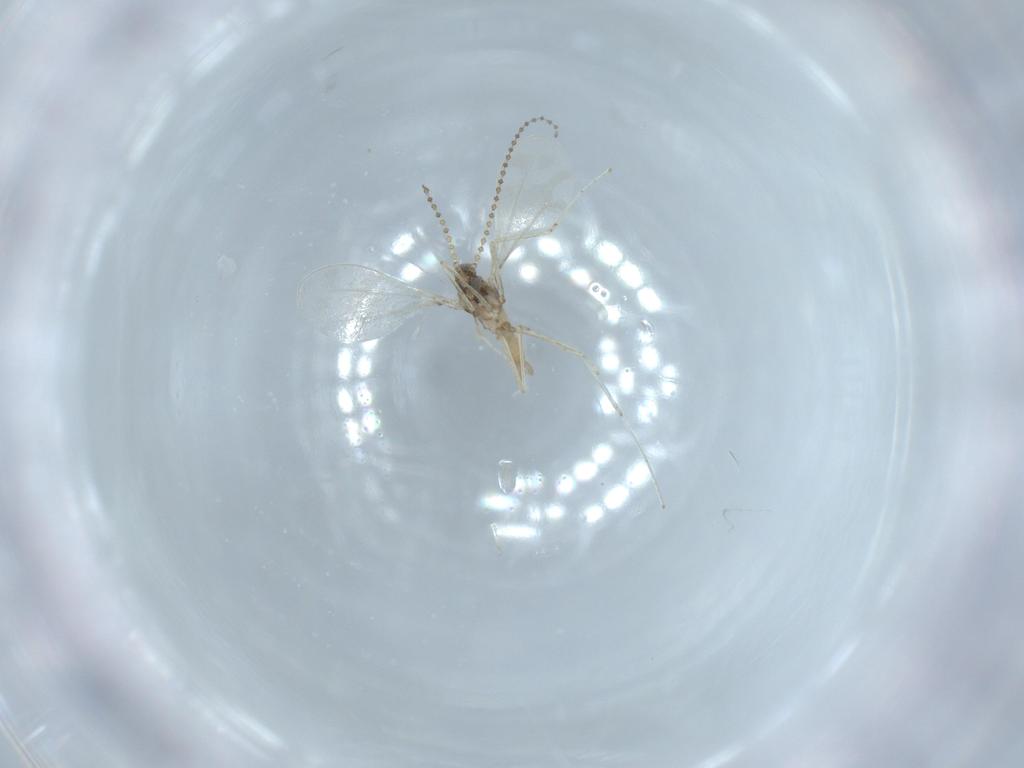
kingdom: Animalia
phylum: Arthropoda
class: Insecta
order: Diptera
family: Cecidomyiidae
